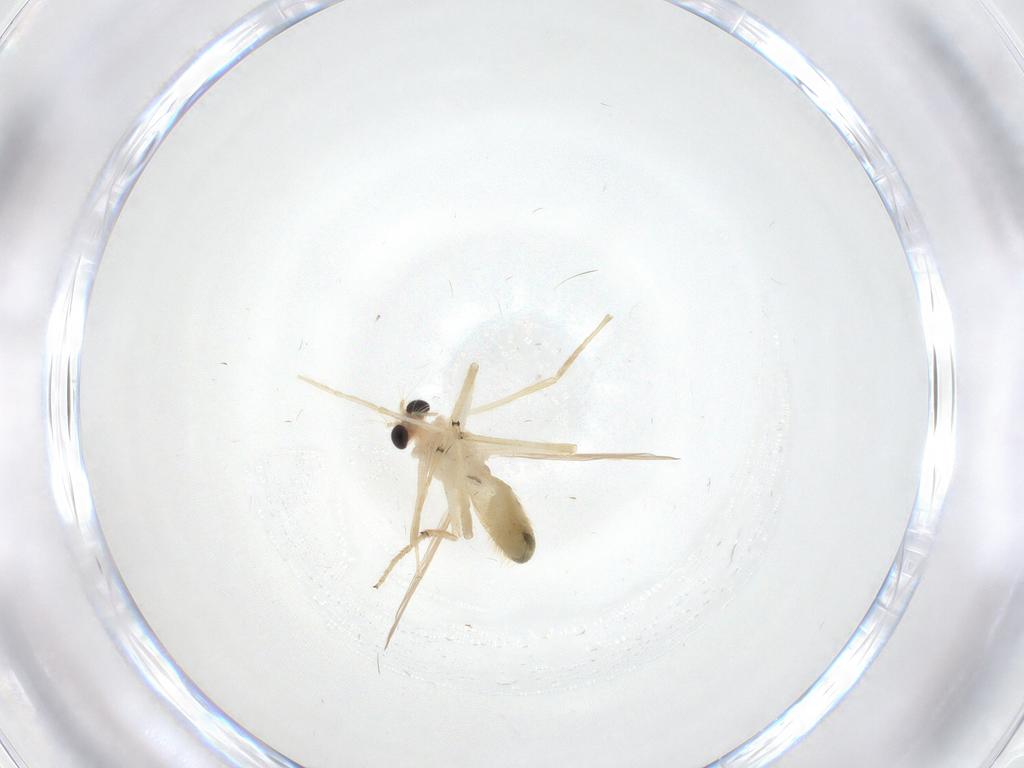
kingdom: Animalia
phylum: Arthropoda
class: Insecta
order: Diptera
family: Chironomidae
